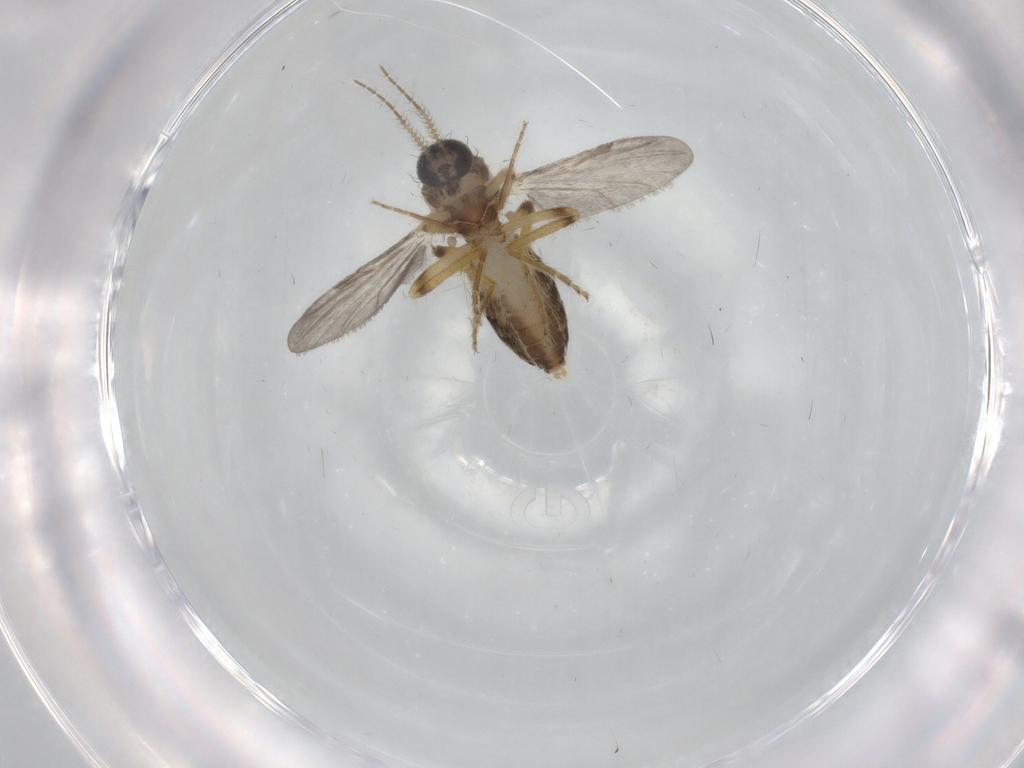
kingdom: Animalia
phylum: Arthropoda
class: Insecta
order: Diptera
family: Ceratopogonidae
